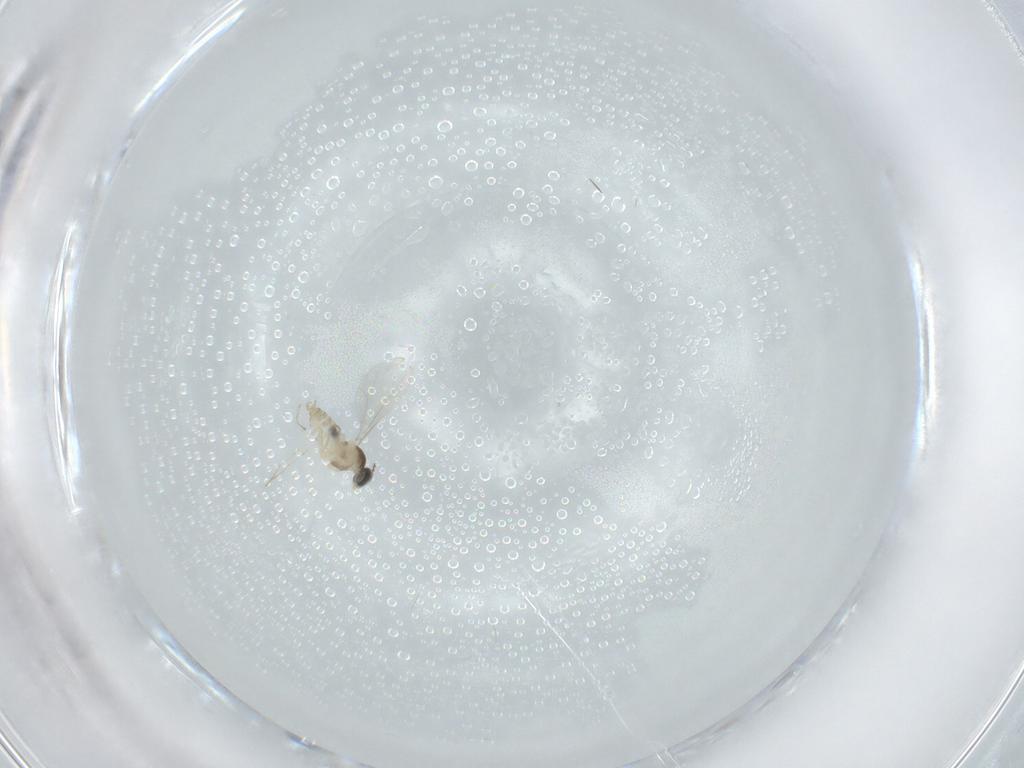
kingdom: Animalia
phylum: Arthropoda
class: Insecta
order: Diptera
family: Cecidomyiidae
